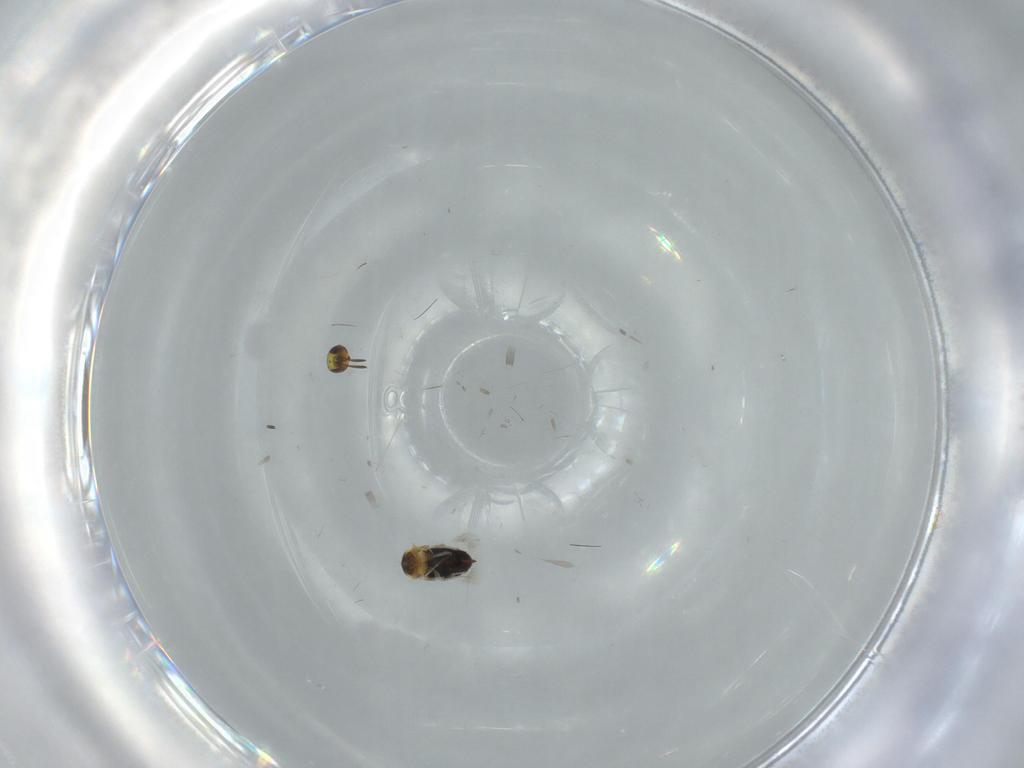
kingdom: Animalia
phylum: Arthropoda
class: Insecta
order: Hymenoptera
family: Signiphoridae
